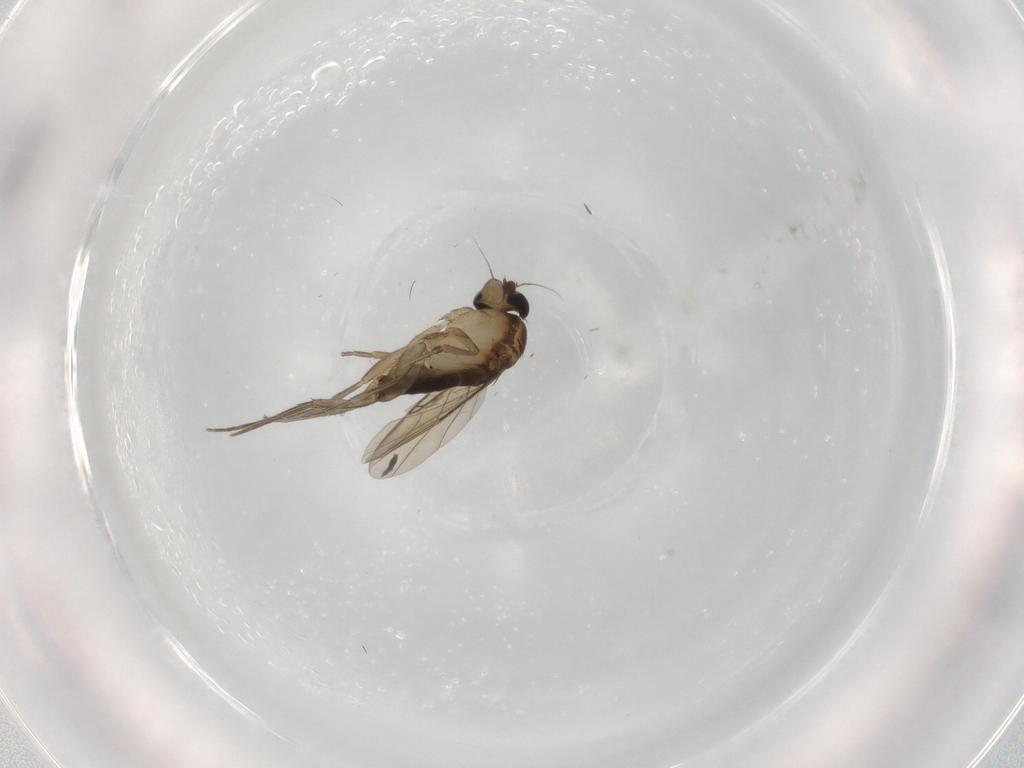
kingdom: Animalia
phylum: Arthropoda
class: Insecta
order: Diptera
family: Phoridae
